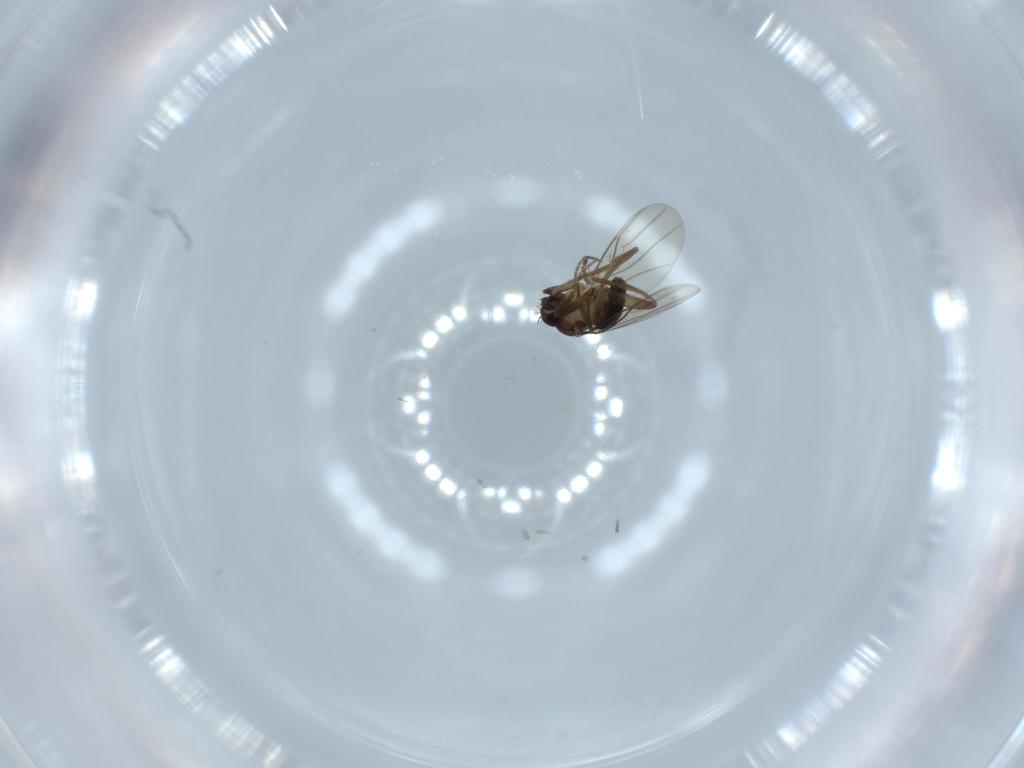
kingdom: Animalia
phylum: Arthropoda
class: Insecta
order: Diptera
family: Phoridae
